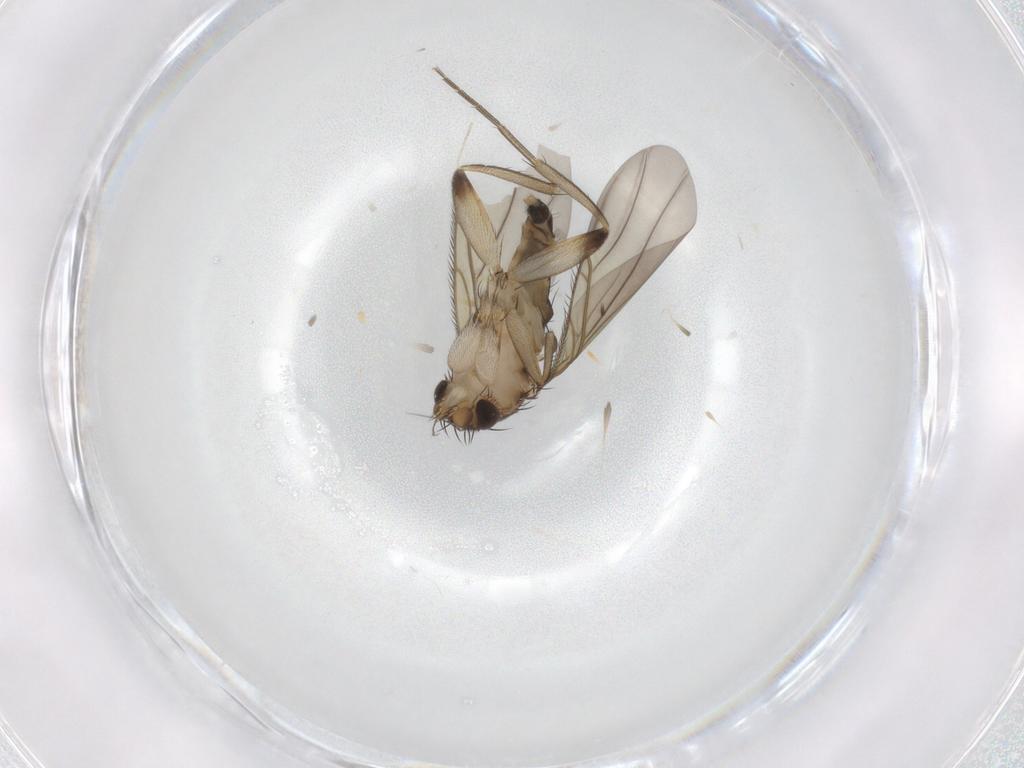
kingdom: Animalia
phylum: Arthropoda
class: Insecta
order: Diptera
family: Phoridae
